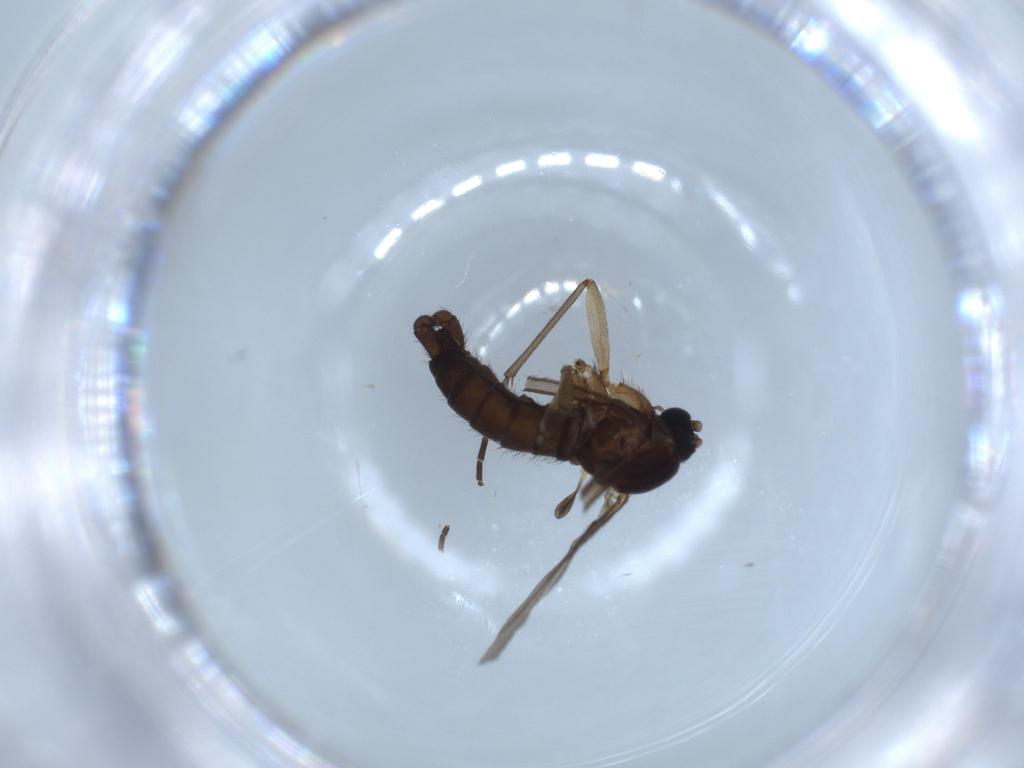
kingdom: Animalia
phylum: Arthropoda
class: Insecta
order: Diptera
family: Sciaridae
